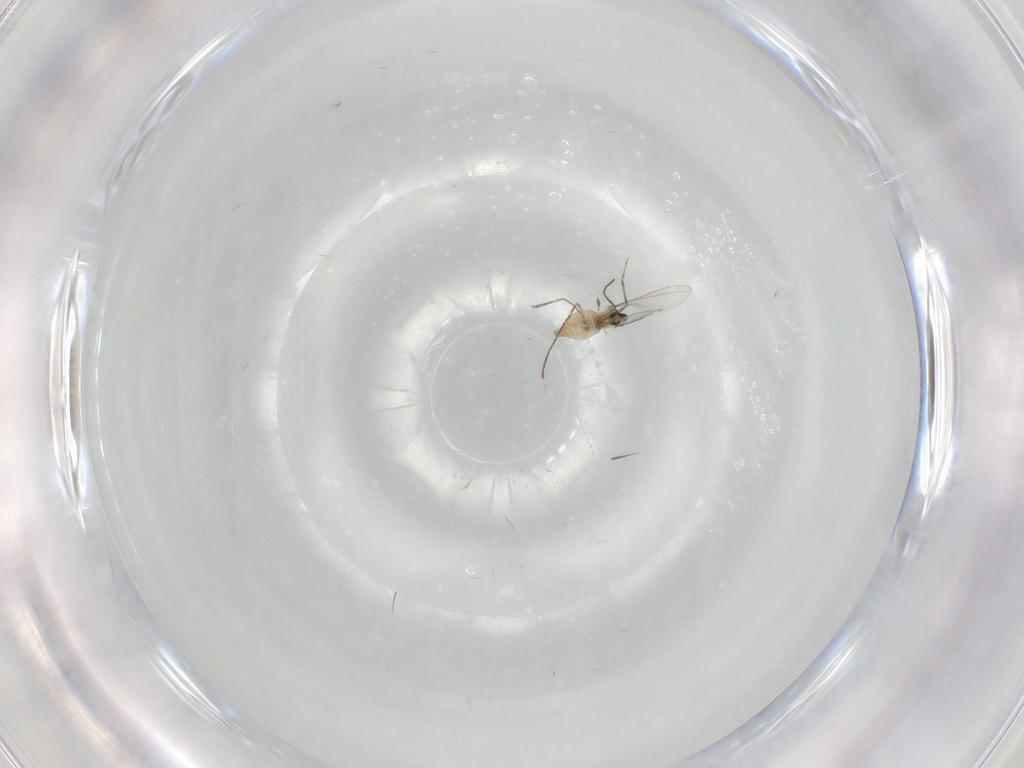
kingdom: Animalia
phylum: Arthropoda
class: Insecta
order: Diptera
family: Cecidomyiidae
